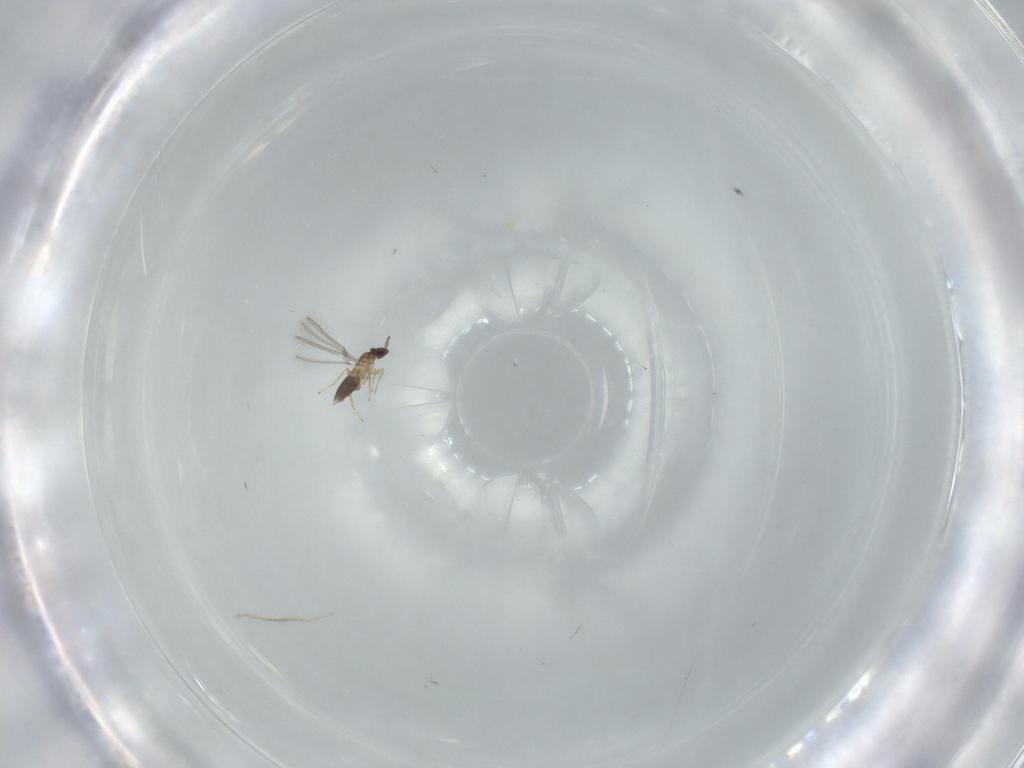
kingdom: Animalia
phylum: Arthropoda
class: Insecta
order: Hymenoptera
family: Mymaridae
